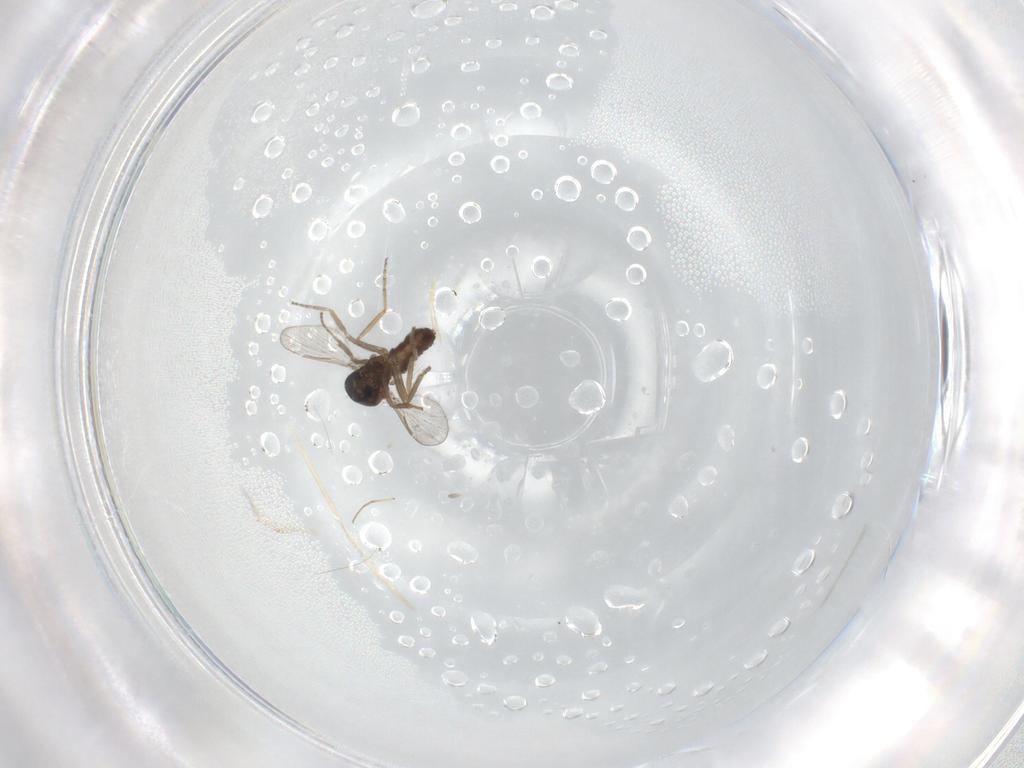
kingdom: Animalia
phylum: Arthropoda
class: Insecta
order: Diptera
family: Ceratopogonidae
